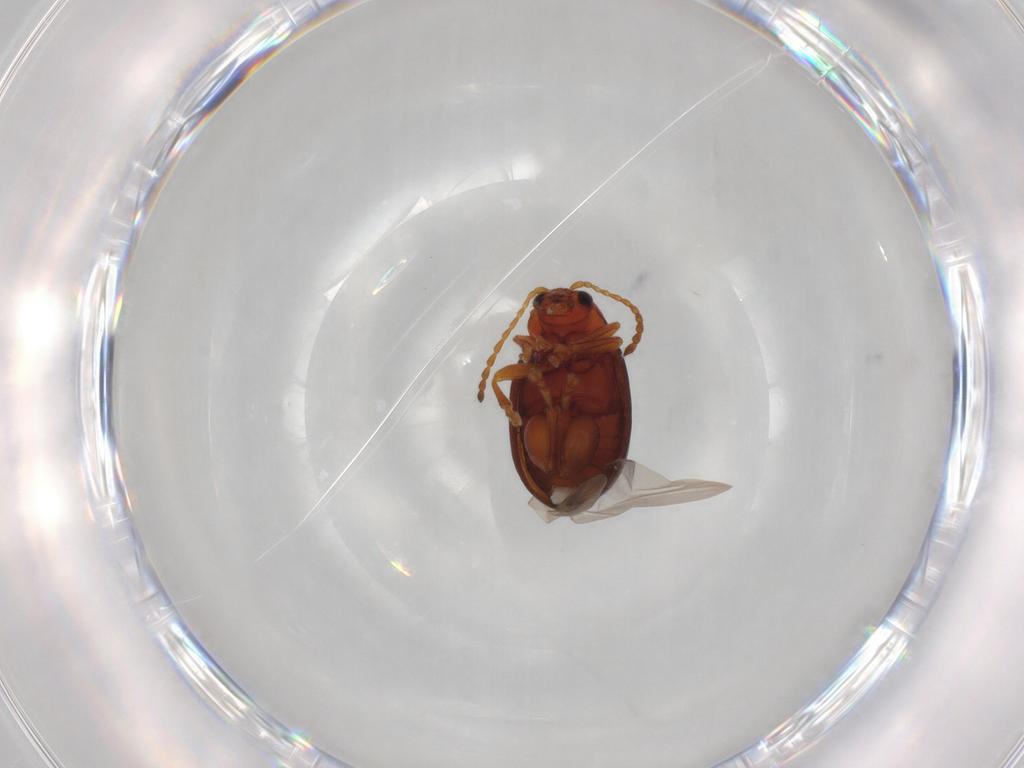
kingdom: Animalia
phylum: Arthropoda
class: Insecta
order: Coleoptera
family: Chrysomelidae
